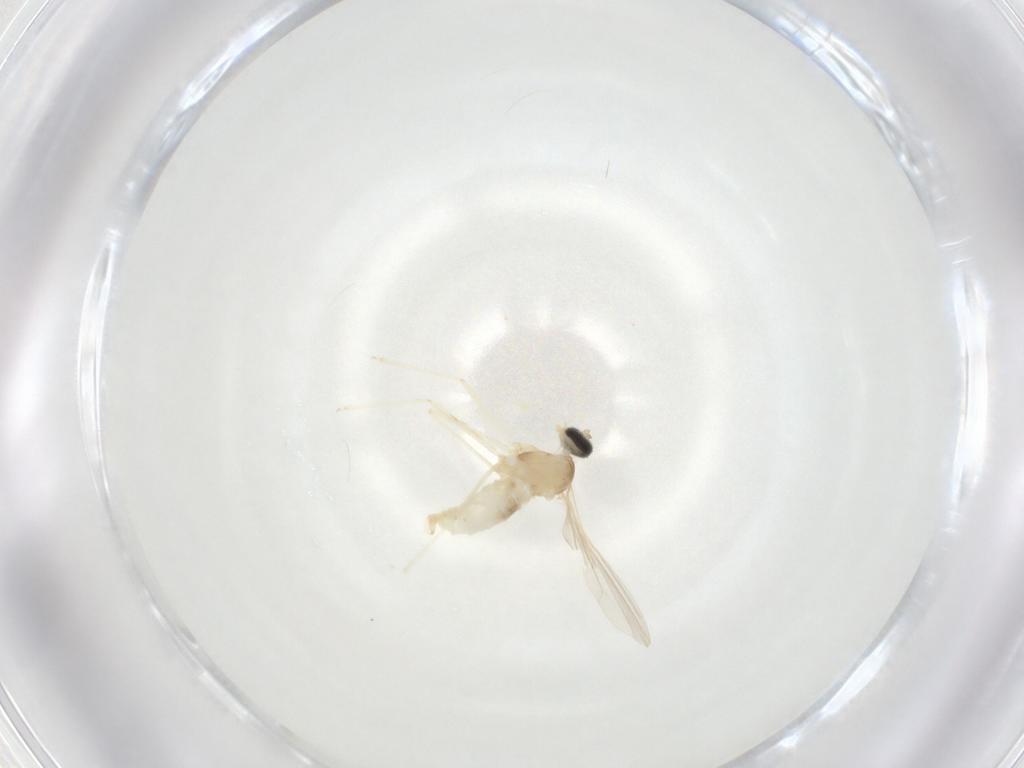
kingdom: Animalia
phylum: Arthropoda
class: Insecta
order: Diptera
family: Cecidomyiidae
